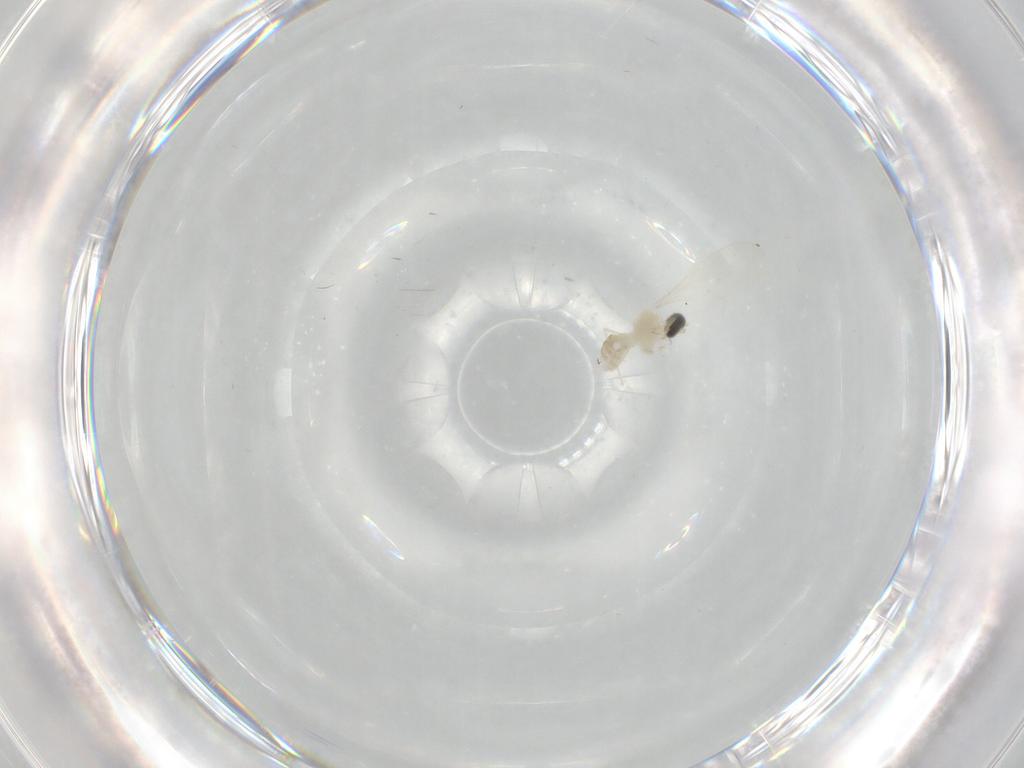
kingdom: Animalia
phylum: Arthropoda
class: Insecta
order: Diptera
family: Cecidomyiidae
